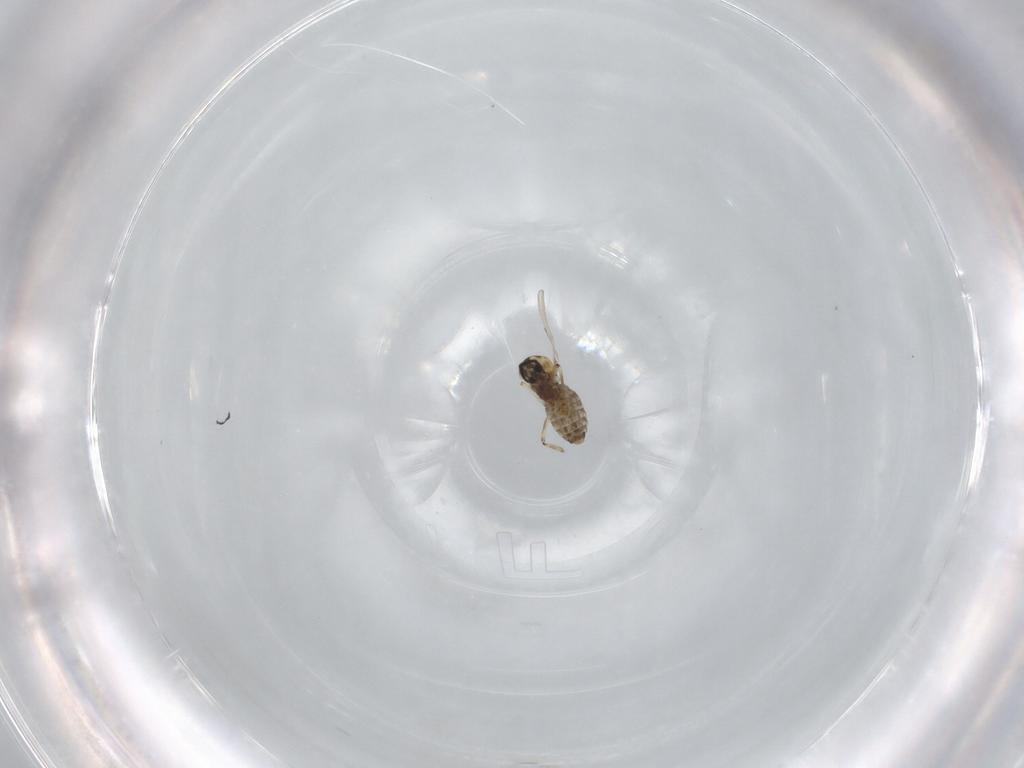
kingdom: Animalia
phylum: Arthropoda
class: Insecta
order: Diptera
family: Ceratopogonidae
